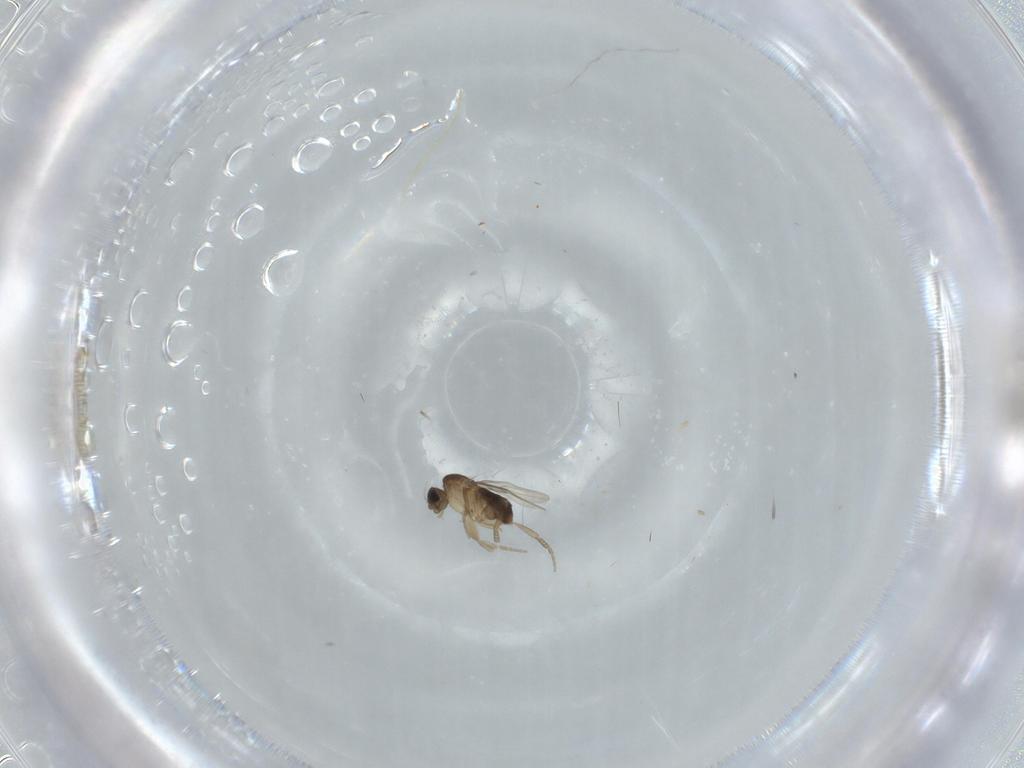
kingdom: Animalia
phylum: Arthropoda
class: Insecta
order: Diptera
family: Phoridae
